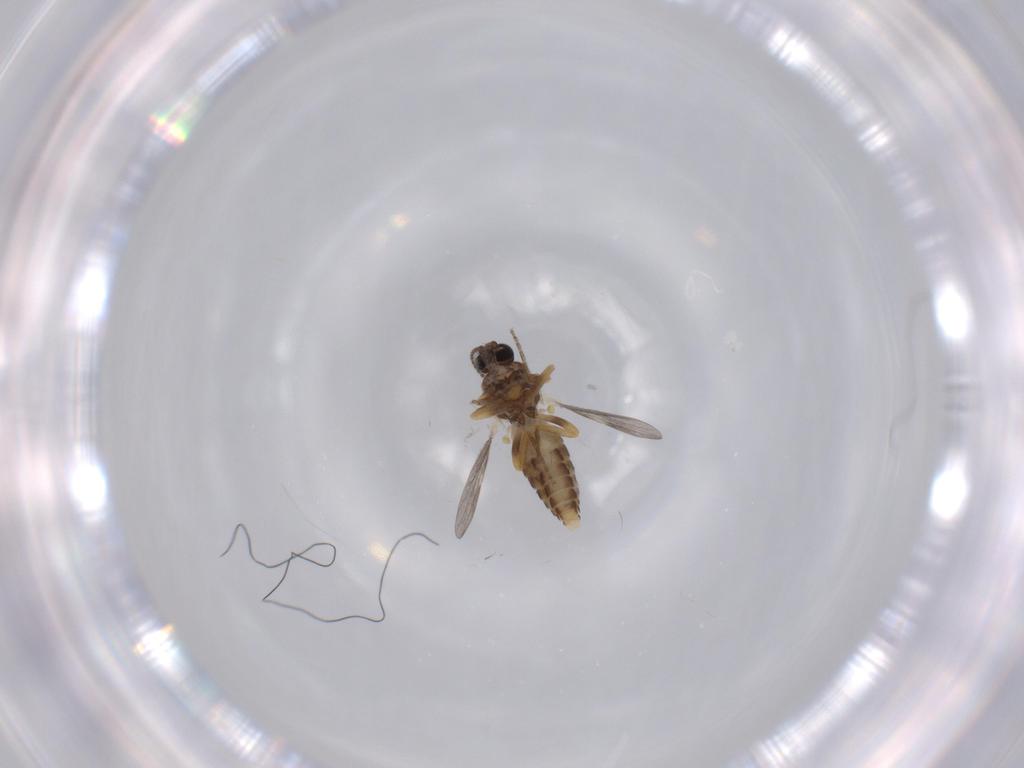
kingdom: Animalia
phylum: Arthropoda
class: Insecta
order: Diptera
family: Ceratopogonidae
